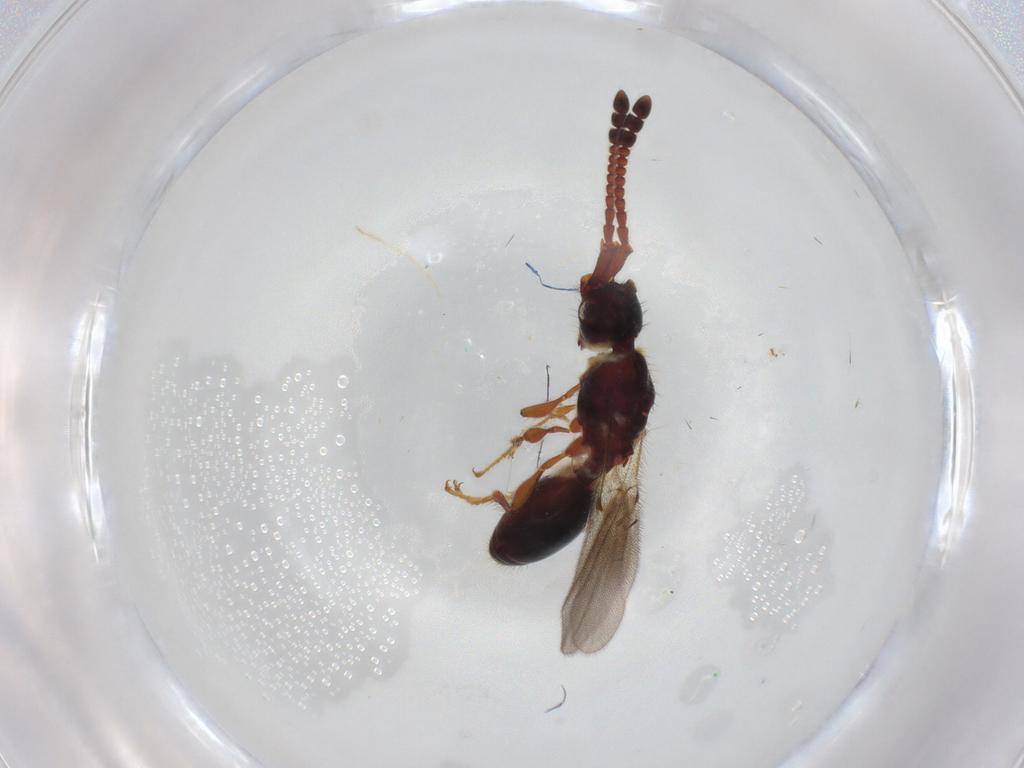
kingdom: Animalia
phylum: Arthropoda
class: Insecta
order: Hymenoptera
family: Diapriidae
